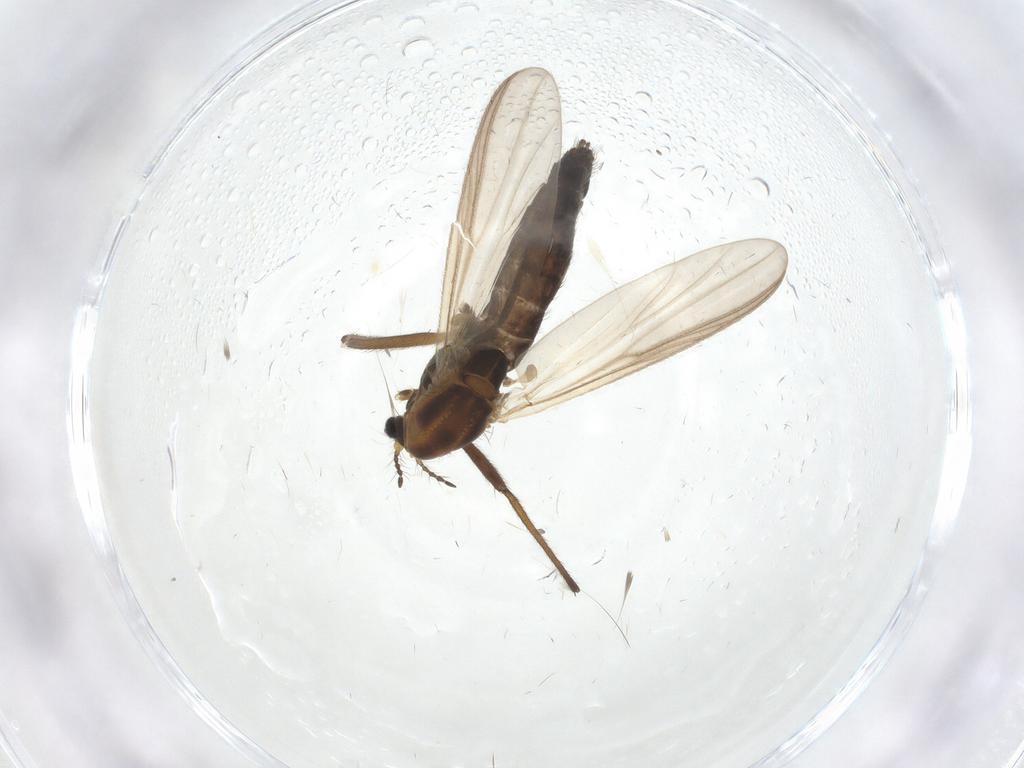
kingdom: Animalia
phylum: Arthropoda
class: Insecta
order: Diptera
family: Chironomidae
